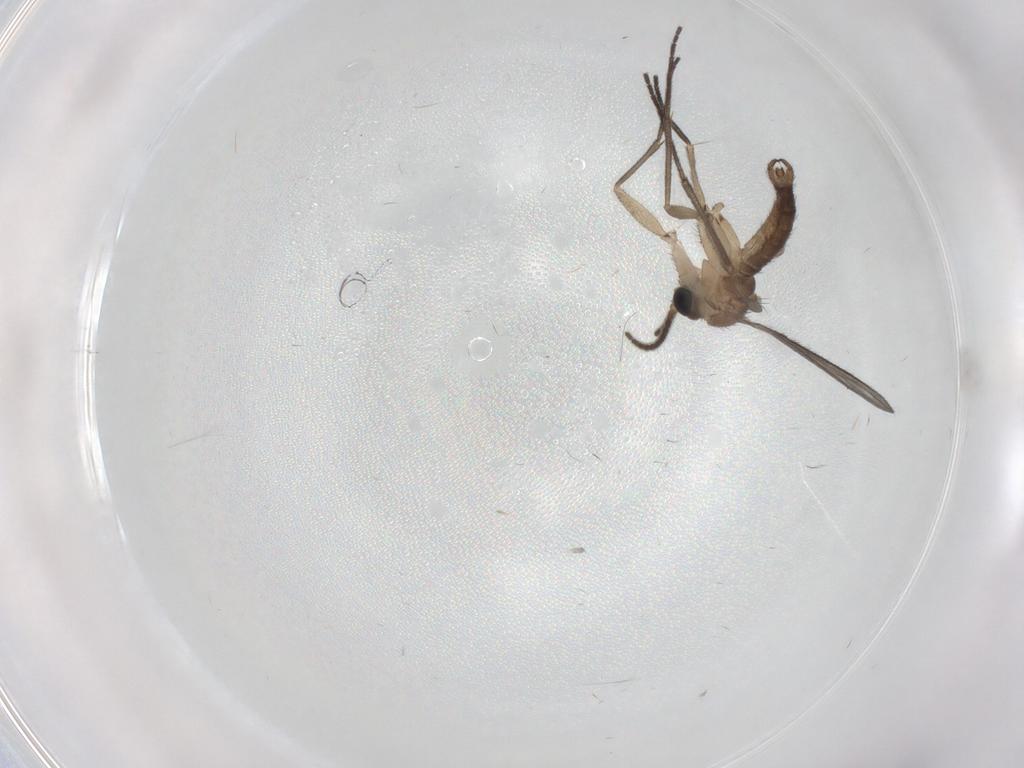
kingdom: Animalia
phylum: Arthropoda
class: Insecta
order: Diptera
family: Sciaridae
